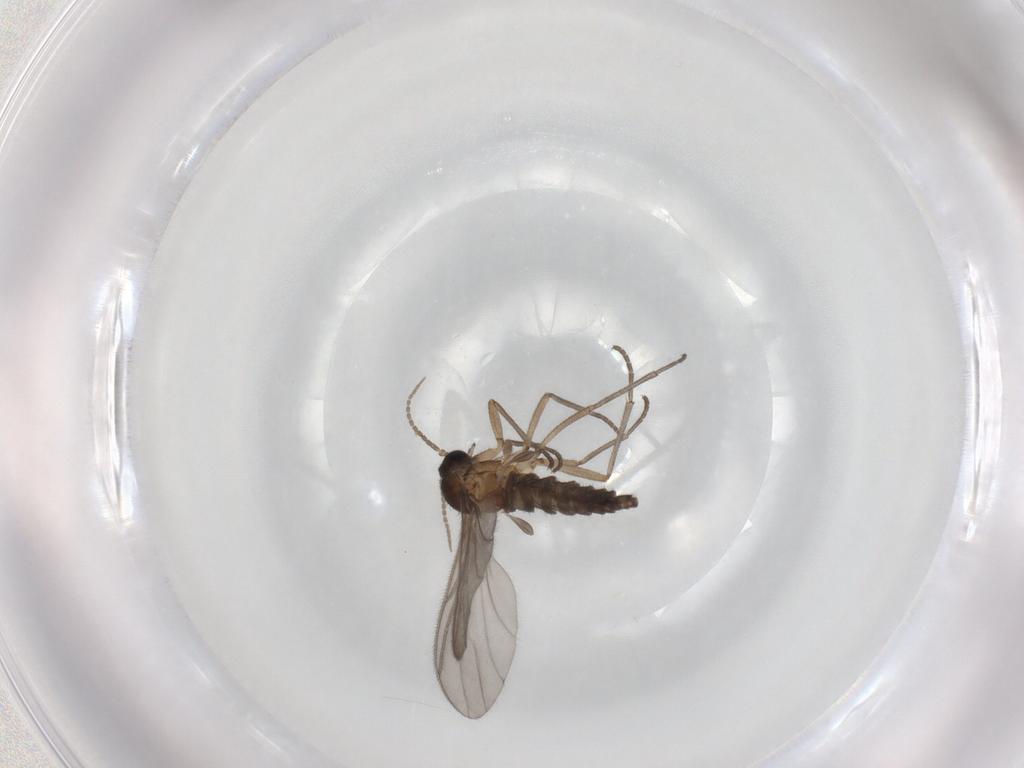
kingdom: Animalia
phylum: Arthropoda
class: Insecta
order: Diptera
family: Sciaridae
